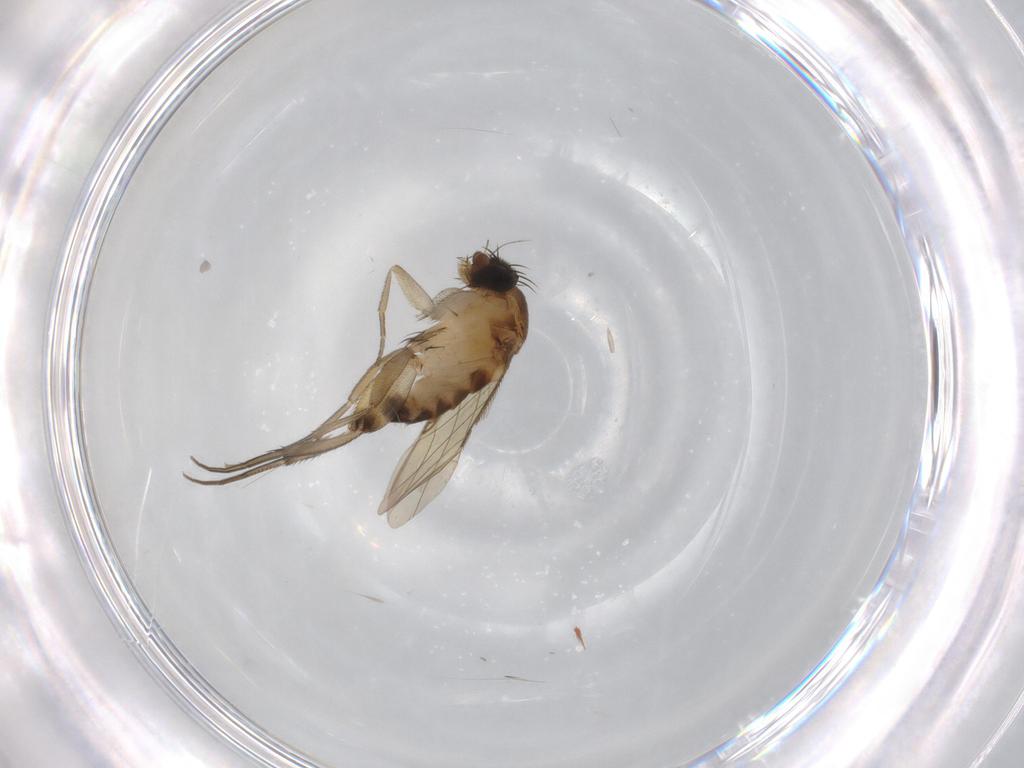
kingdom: Animalia
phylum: Arthropoda
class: Insecta
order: Diptera
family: Phoridae
